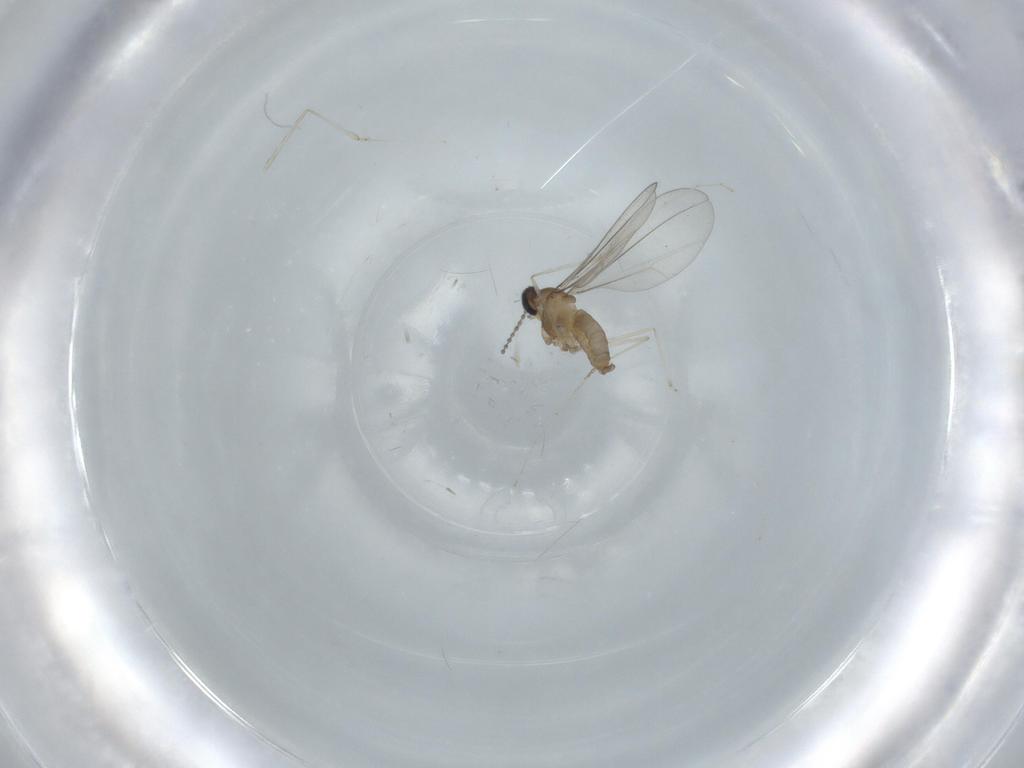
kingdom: Animalia
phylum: Arthropoda
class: Insecta
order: Diptera
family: Cecidomyiidae
